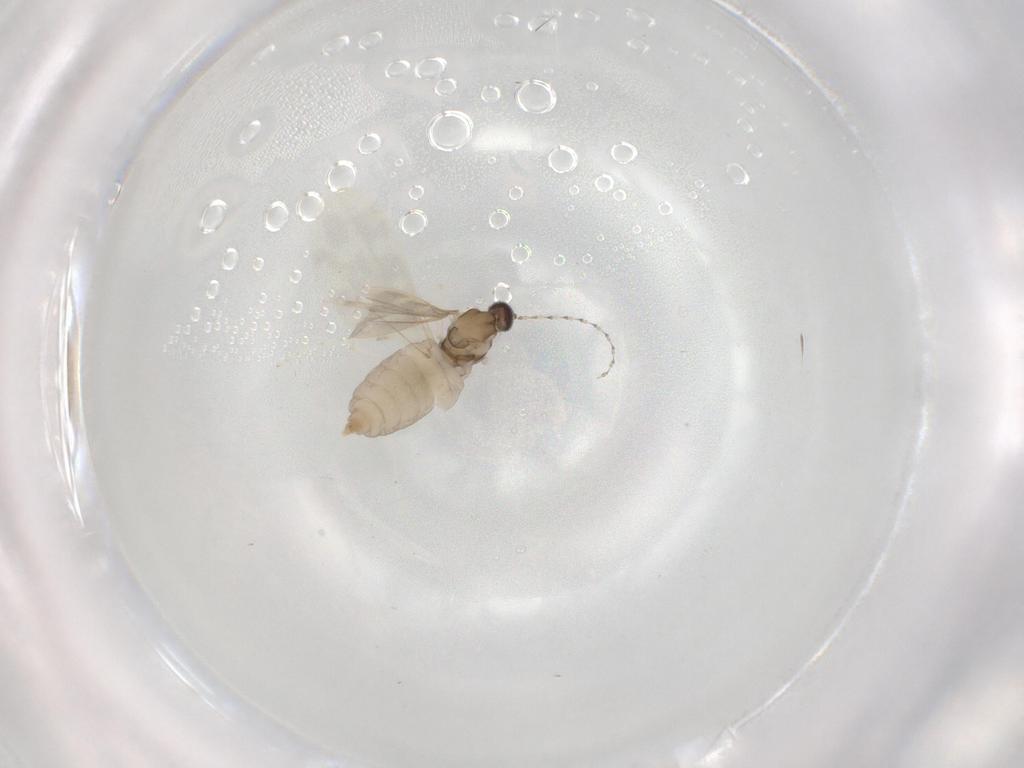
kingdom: Animalia
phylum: Arthropoda
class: Insecta
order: Diptera
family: Cecidomyiidae
